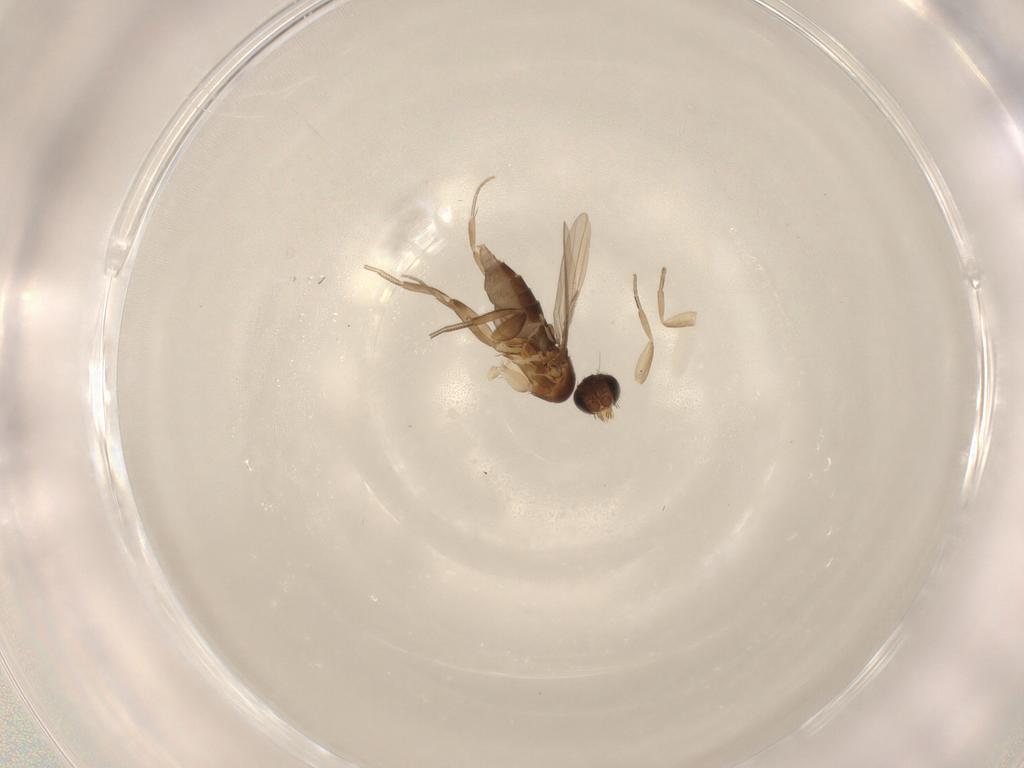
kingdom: Animalia
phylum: Arthropoda
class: Insecta
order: Diptera
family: Phoridae
